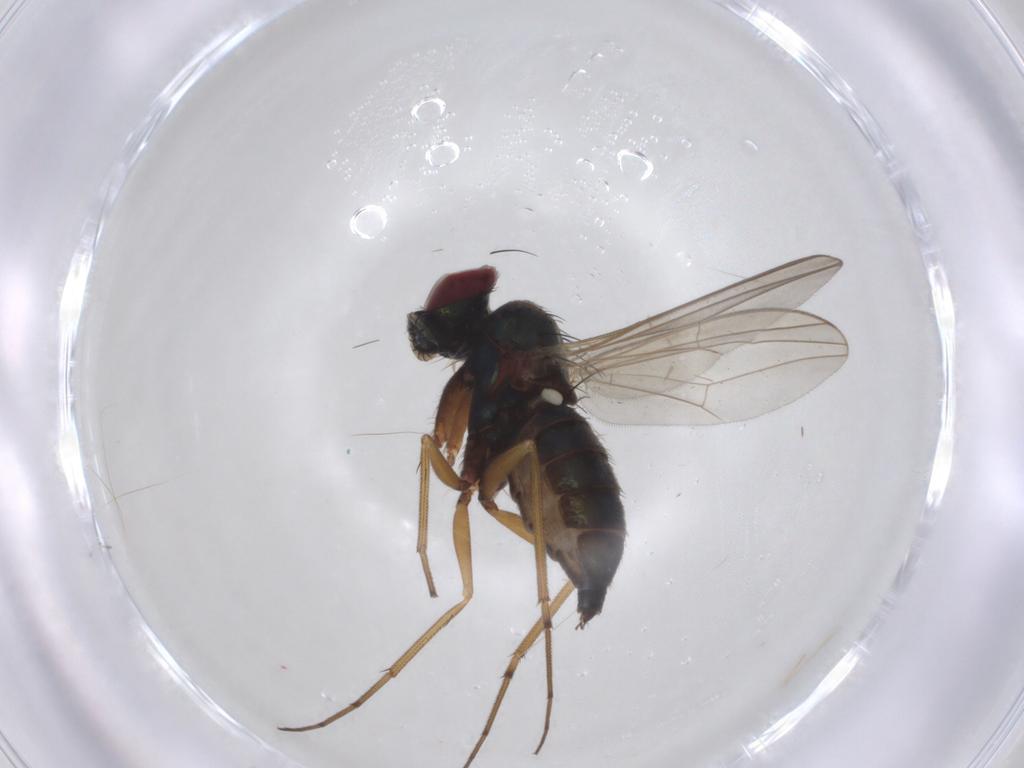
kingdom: Animalia
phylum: Arthropoda
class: Insecta
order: Diptera
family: Dolichopodidae
